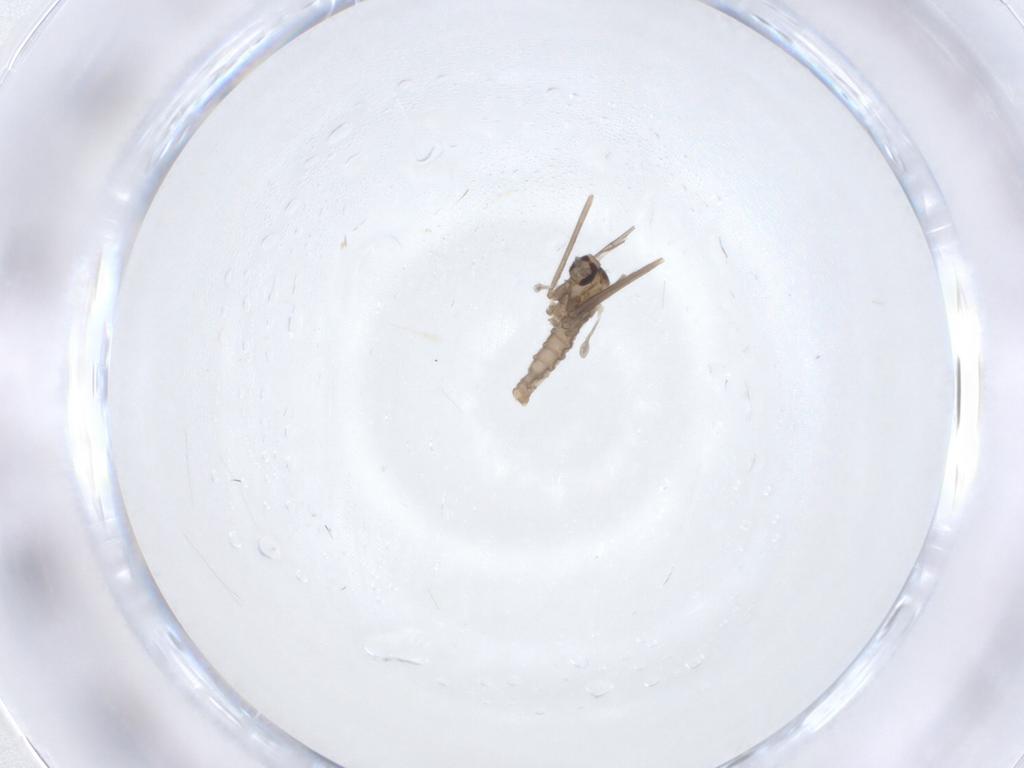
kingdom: Animalia
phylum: Arthropoda
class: Insecta
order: Diptera
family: Cecidomyiidae
